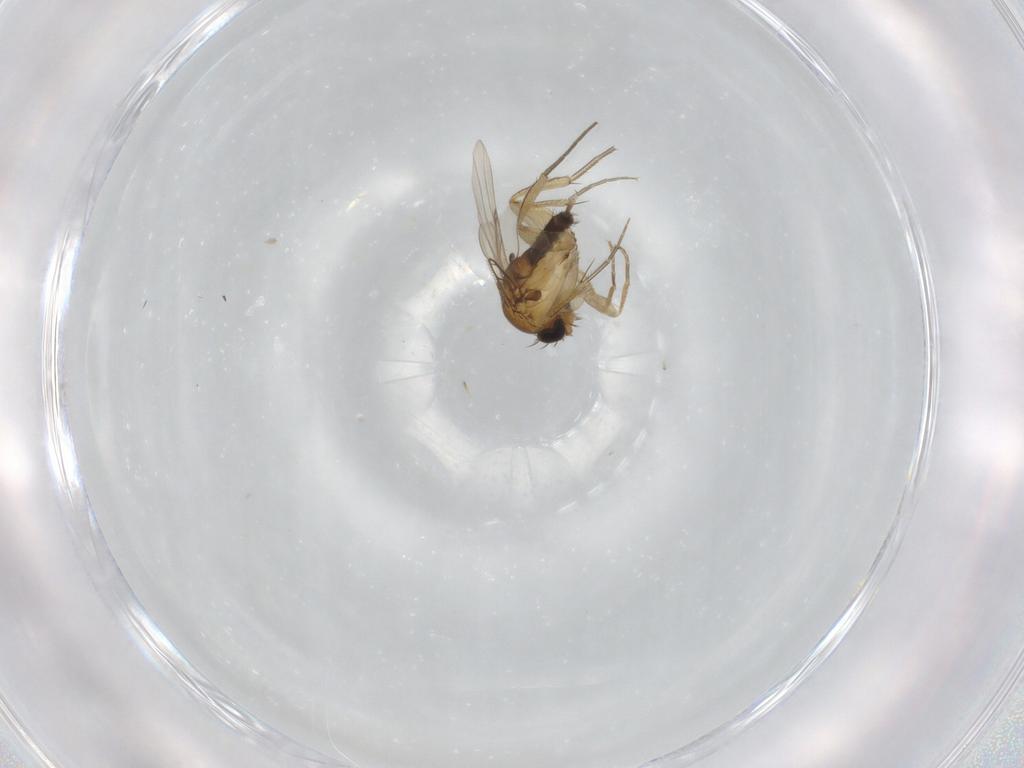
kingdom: Animalia
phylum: Arthropoda
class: Insecta
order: Diptera
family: Phoridae
